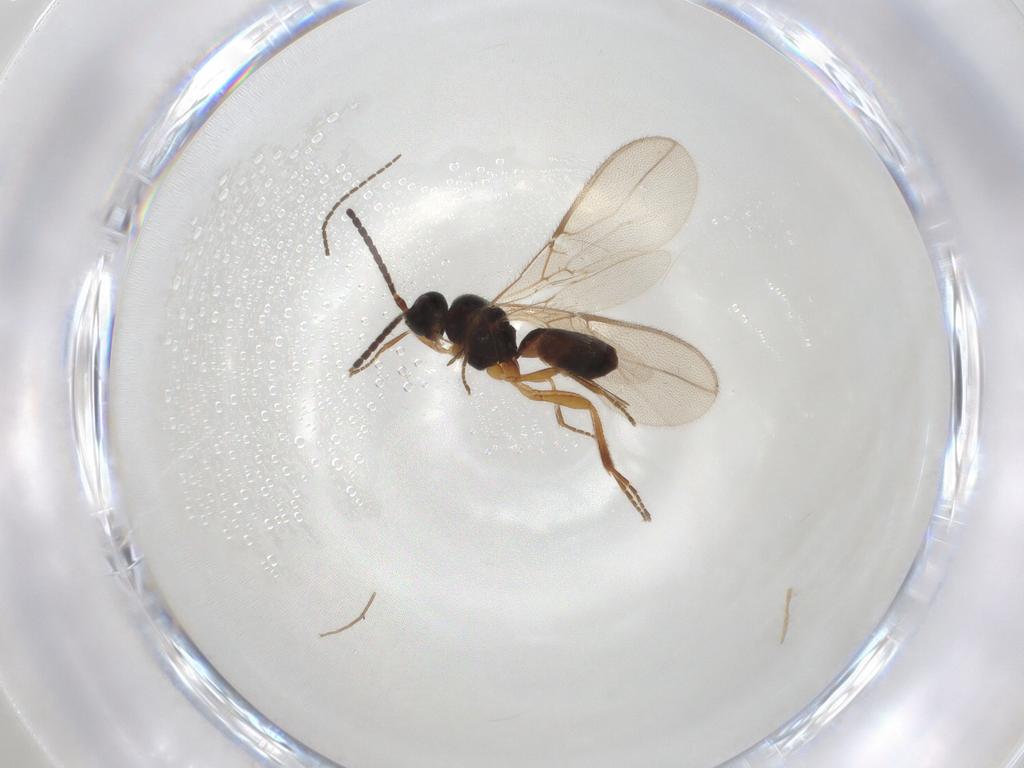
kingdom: Animalia
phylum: Arthropoda
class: Insecta
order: Hymenoptera
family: Braconidae
